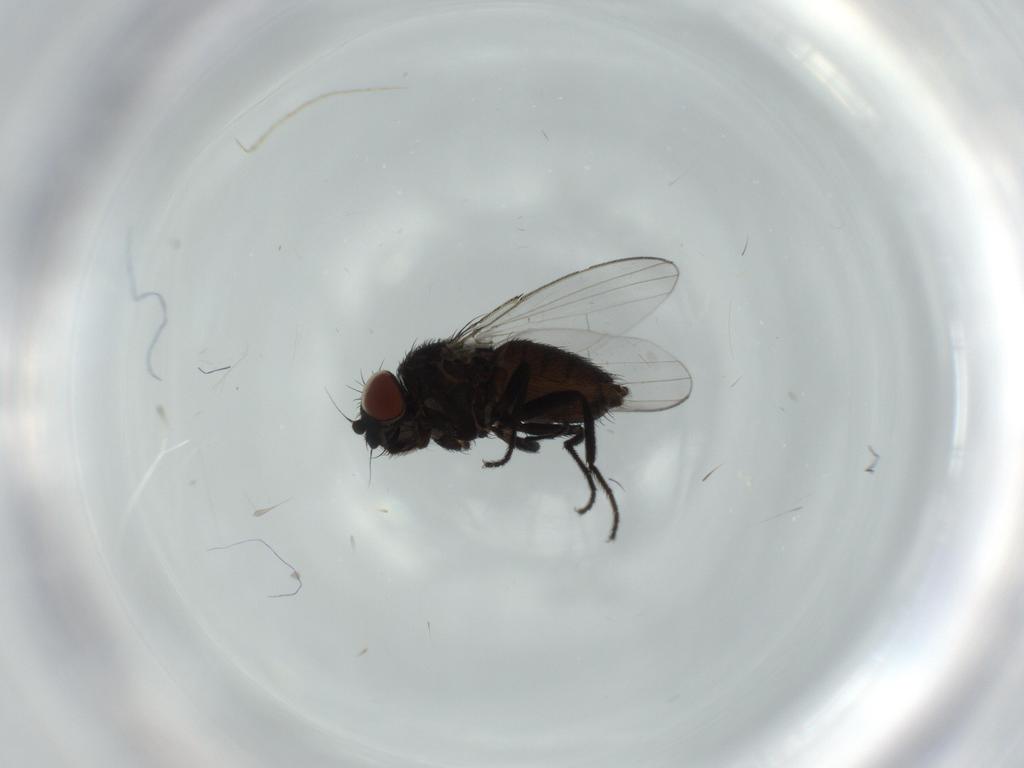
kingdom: Animalia
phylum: Arthropoda
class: Insecta
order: Diptera
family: Milichiidae
